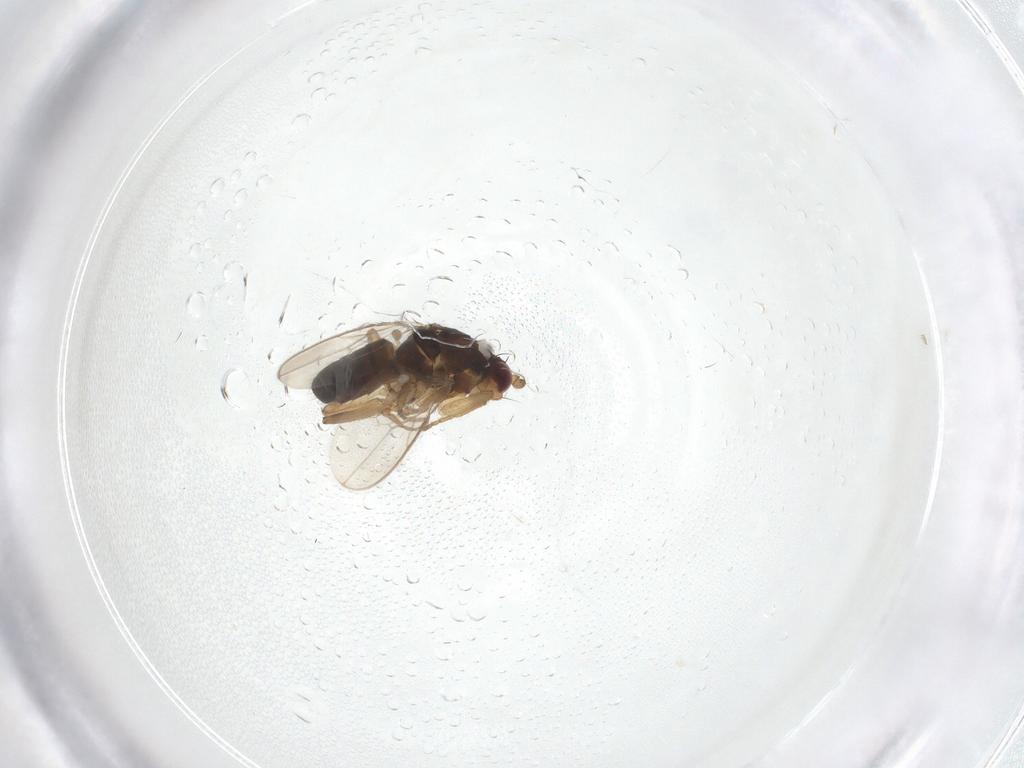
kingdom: Animalia
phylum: Arthropoda
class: Insecta
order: Diptera
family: Sphaeroceridae
